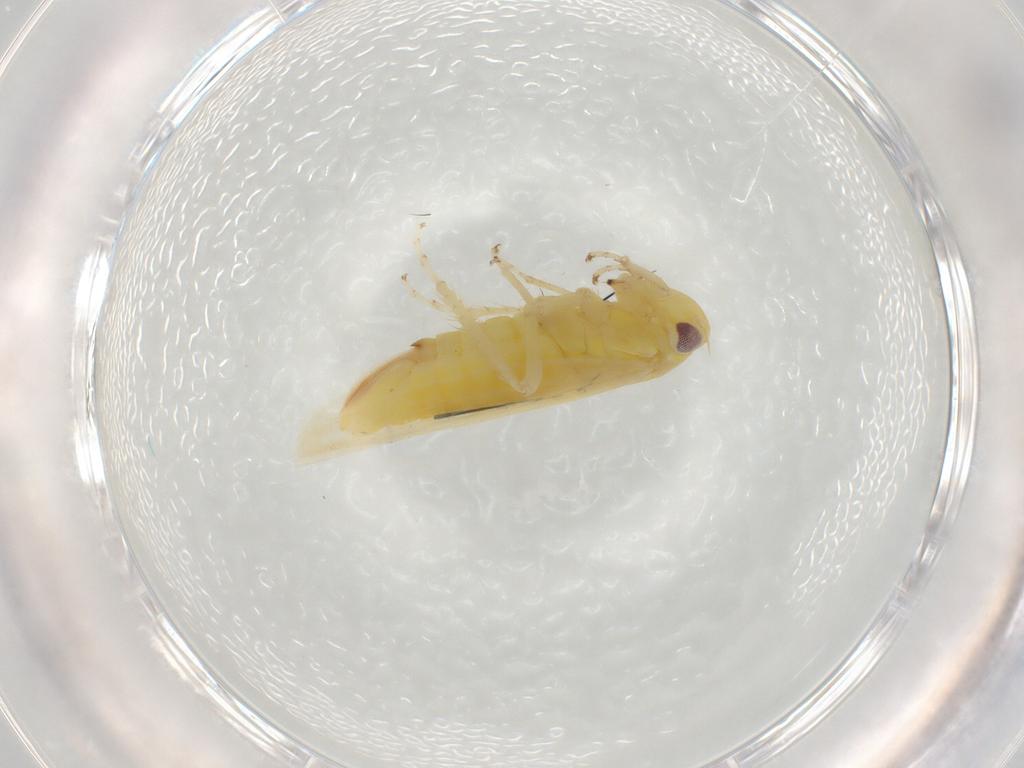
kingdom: Animalia
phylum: Arthropoda
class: Insecta
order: Hemiptera
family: Cicadellidae
